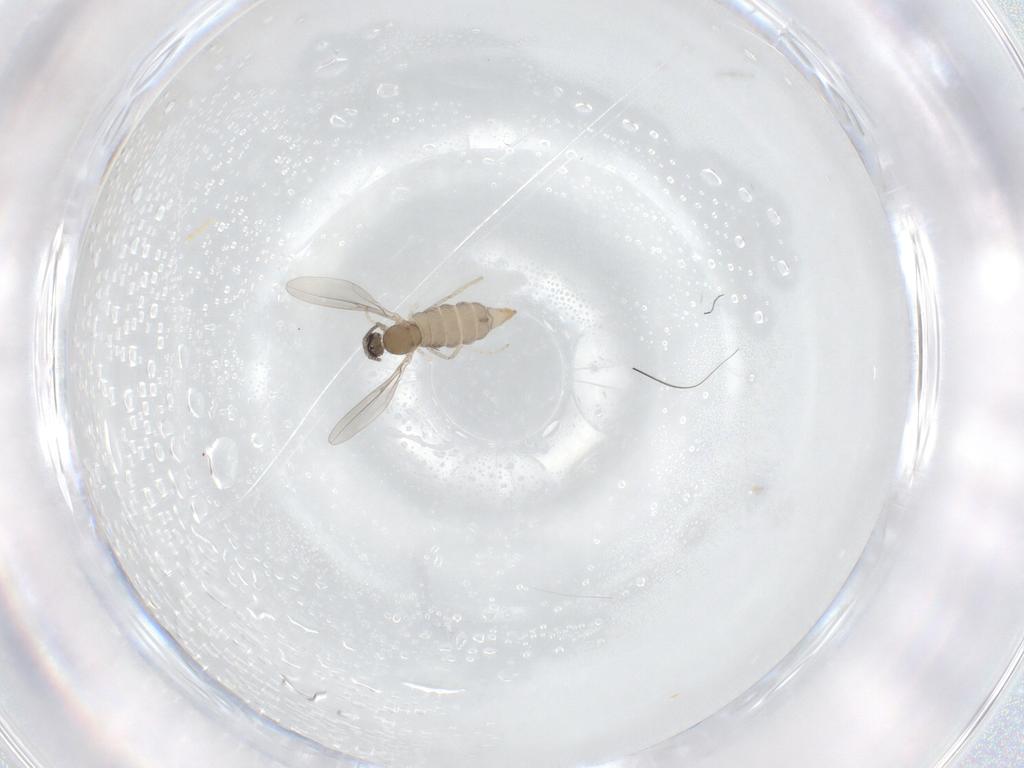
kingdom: Animalia
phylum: Arthropoda
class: Insecta
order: Diptera
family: Cecidomyiidae
